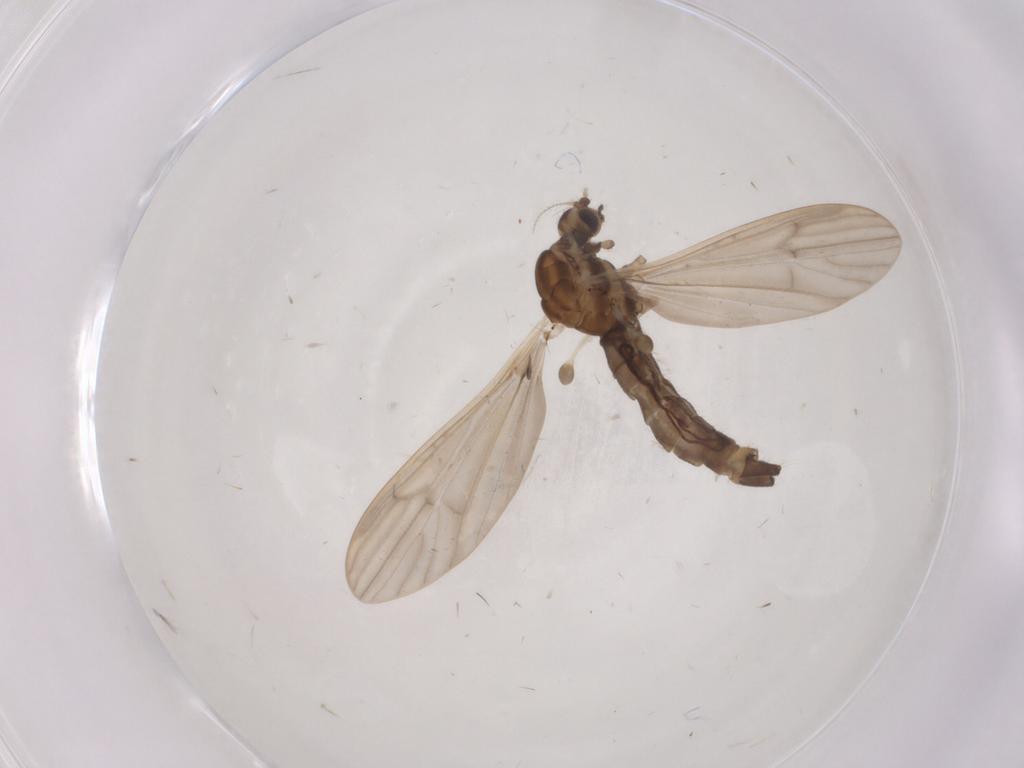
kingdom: Animalia
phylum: Arthropoda
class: Insecta
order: Diptera
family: Limoniidae
